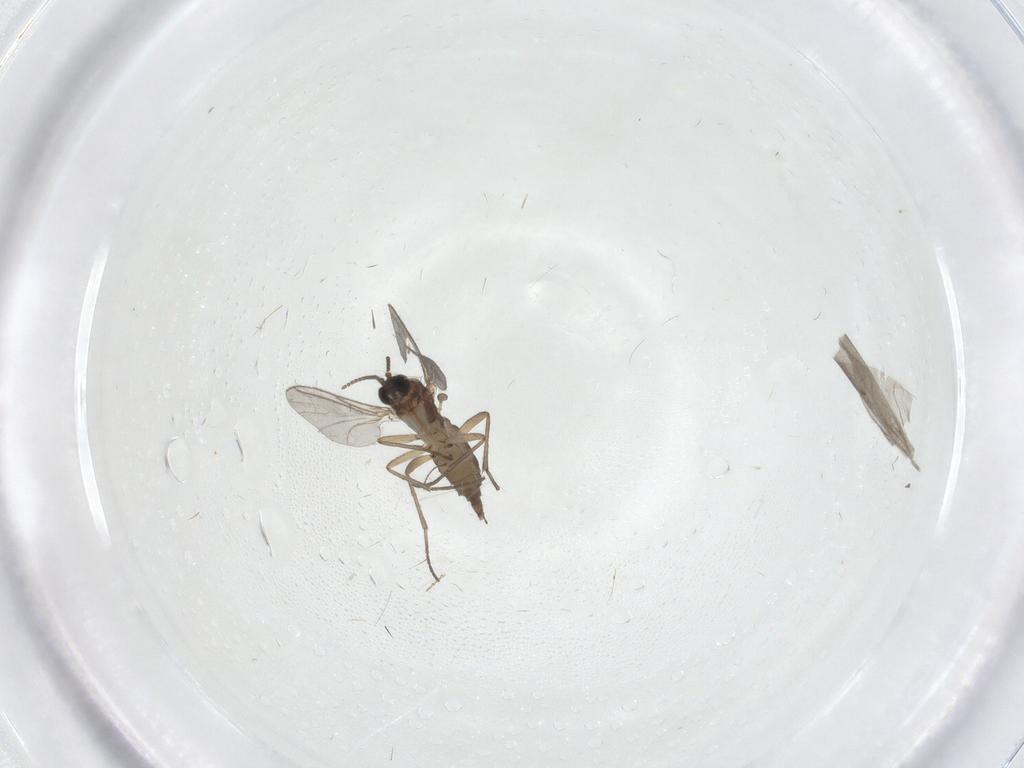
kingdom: Animalia
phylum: Arthropoda
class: Insecta
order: Diptera
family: Sciaridae
